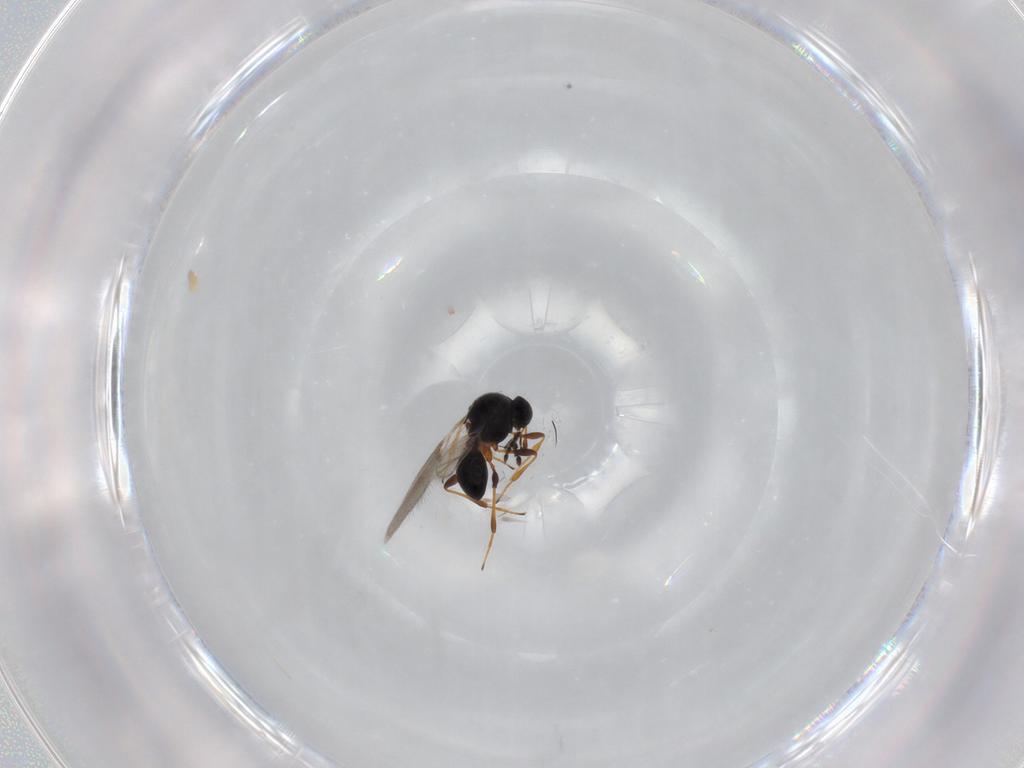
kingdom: Animalia
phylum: Arthropoda
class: Insecta
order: Hymenoptera
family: Platygastridae
